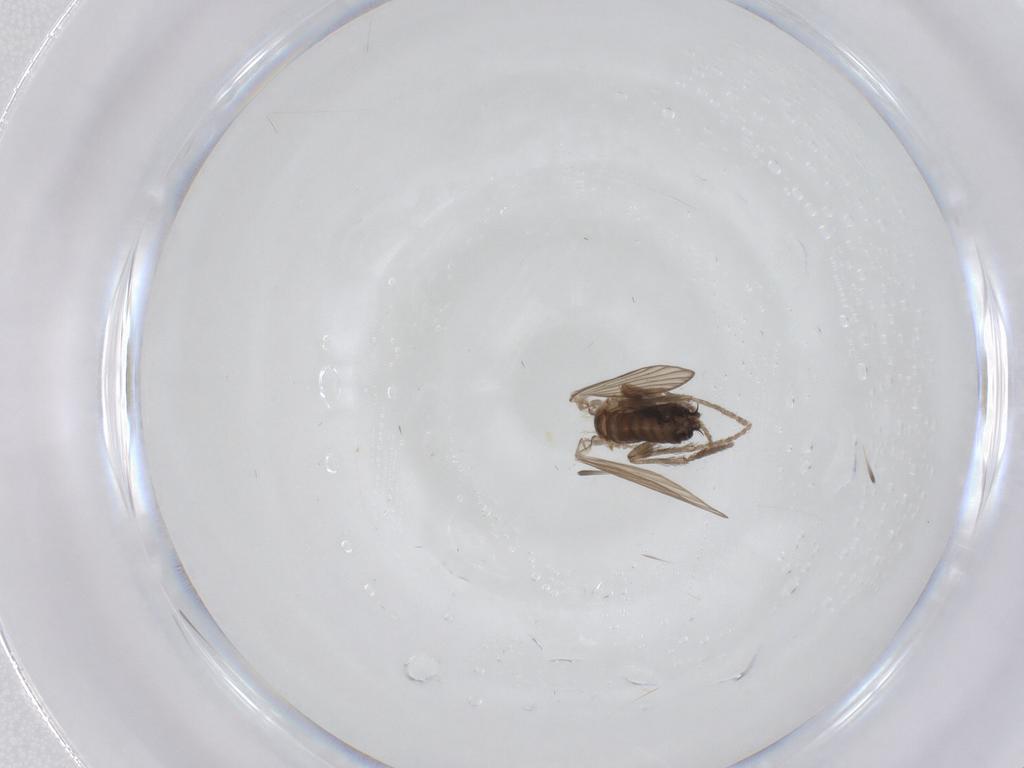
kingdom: Animalia
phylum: Arthropoda
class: Insecta
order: Diptera
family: Psychodidae
